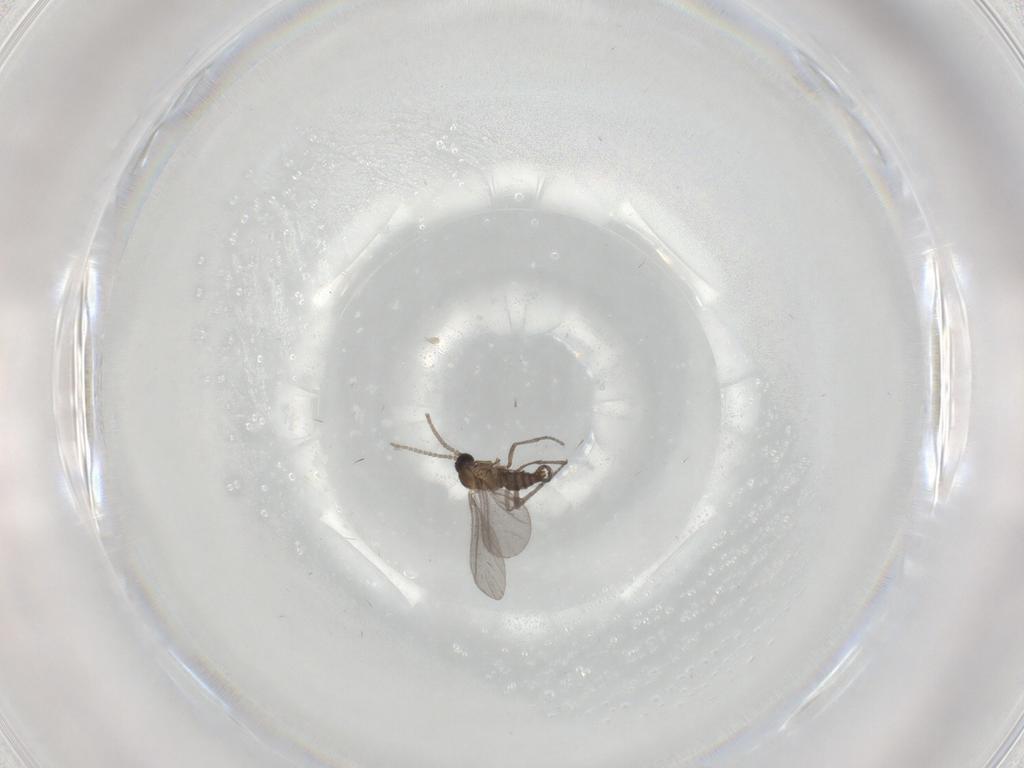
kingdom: Animalia
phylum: Arthropoda
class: Insecta
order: Diptera
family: Sciaridae
